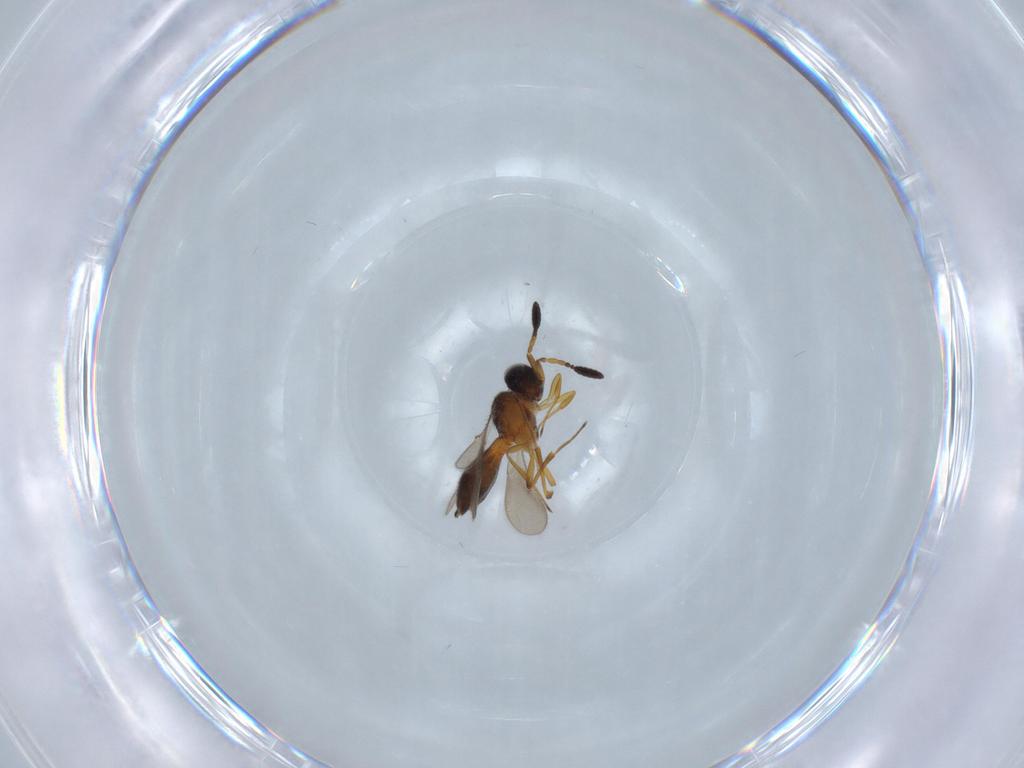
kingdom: Animalia
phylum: Arthropoda
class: Insecta
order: Hymenoptera
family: Scelionidae
